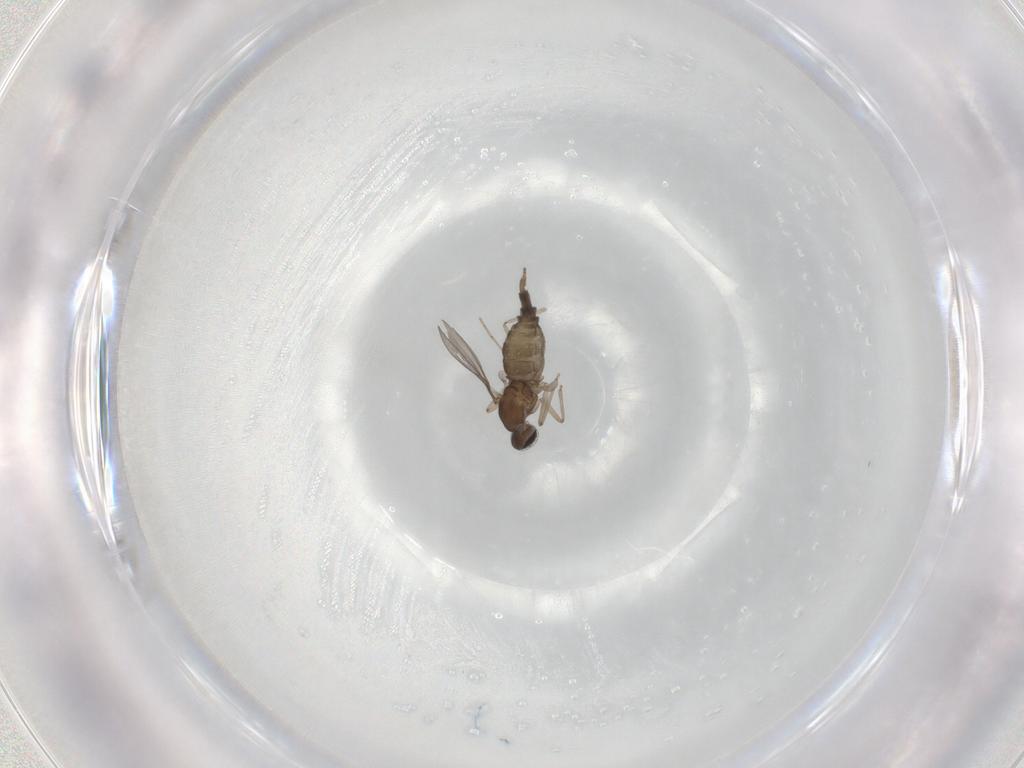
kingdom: Animalia
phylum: Arthropoda
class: Insecta
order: Diptera
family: Cecidomyiidae
